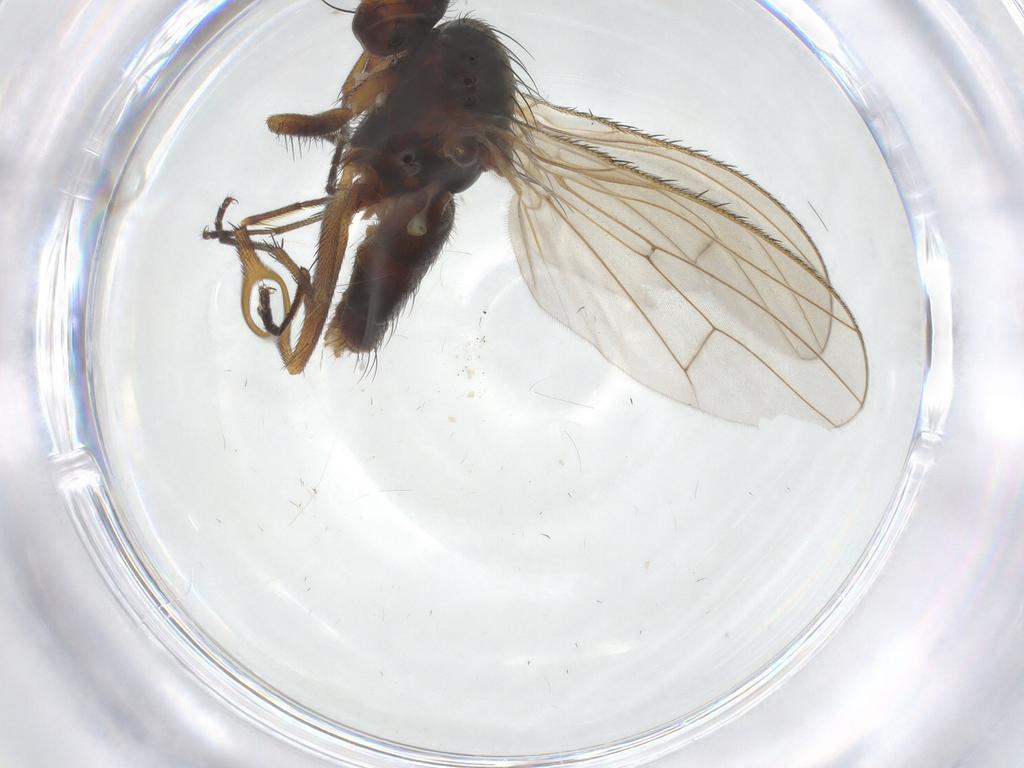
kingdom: Animalia
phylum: Arthropoda
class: Insecta
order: Diptera
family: Heleomyzidae
